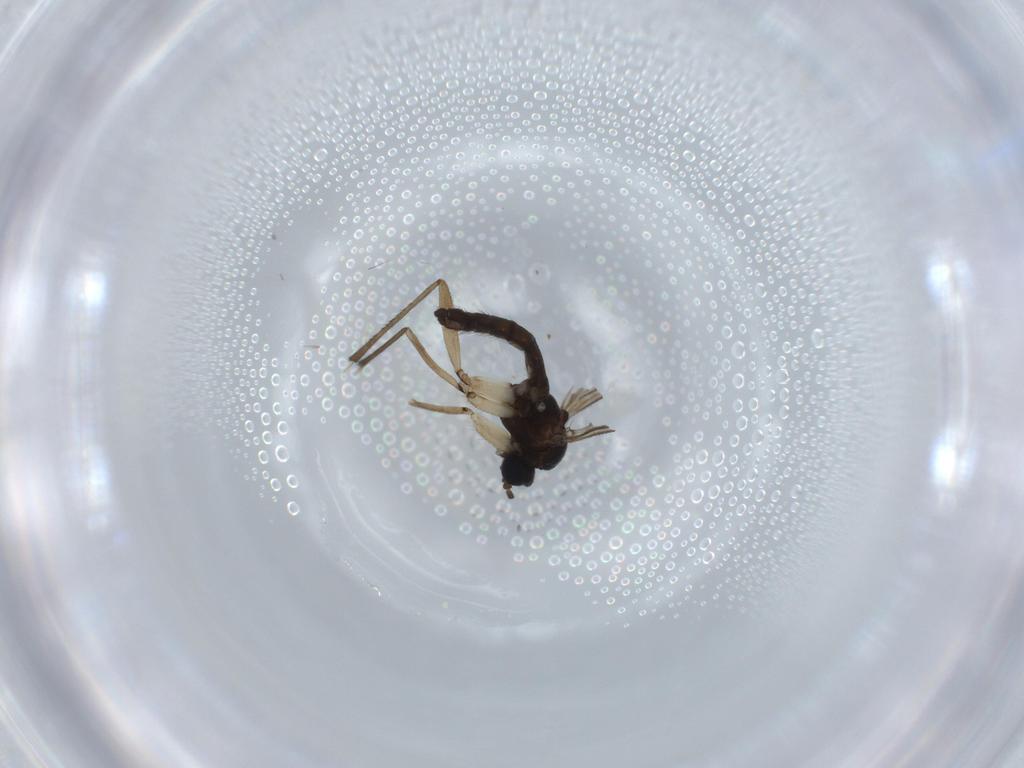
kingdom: Animalia
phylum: Arthropoda
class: Insecta
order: Diptera
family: Sciaridae
